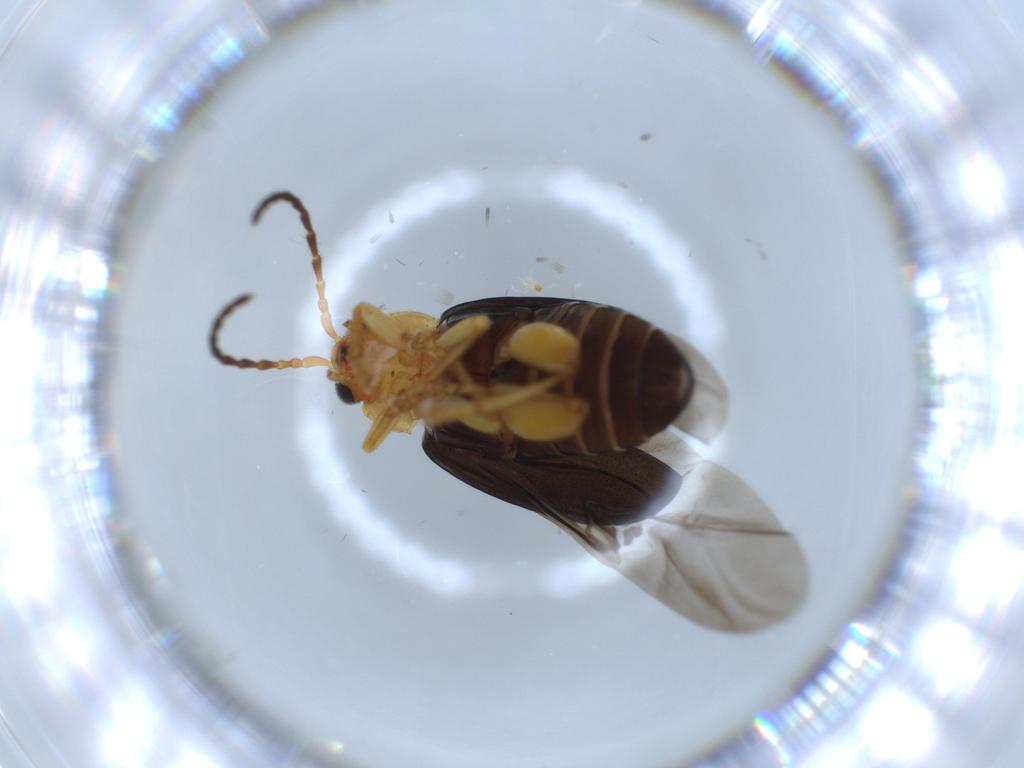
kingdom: Animalia
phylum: Arthropoda
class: Insecta
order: Coleoptera
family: Chrysomelidae
